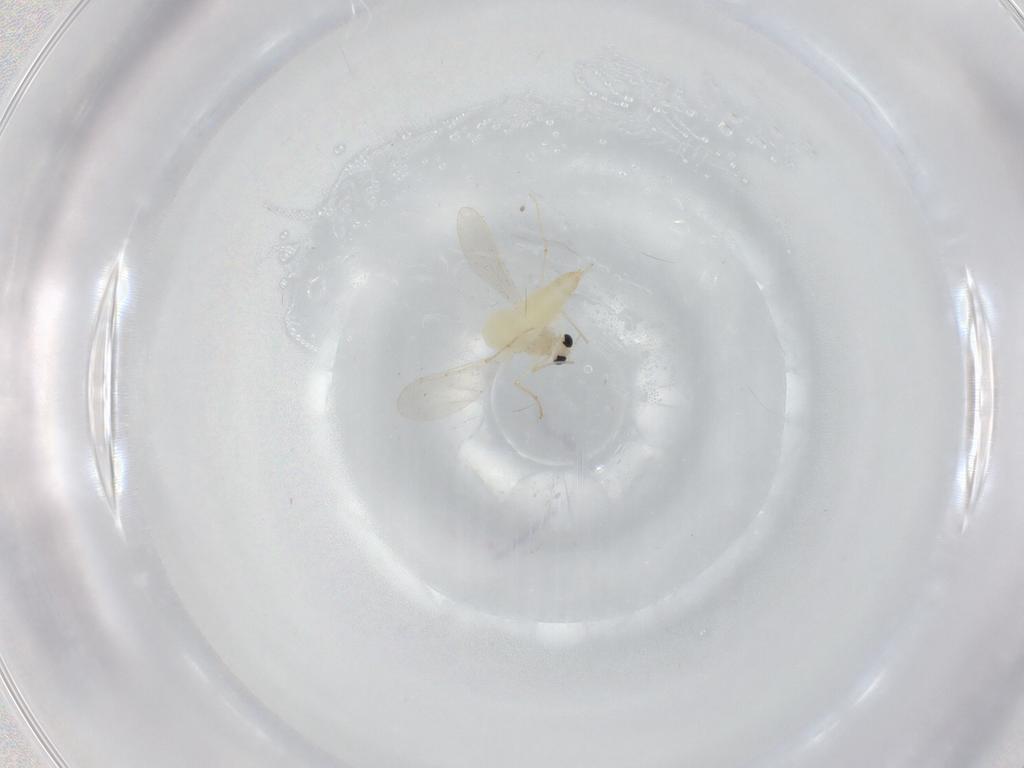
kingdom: Animalia
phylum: Arthropoda
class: Insecta
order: Diptera
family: Chironomidae
